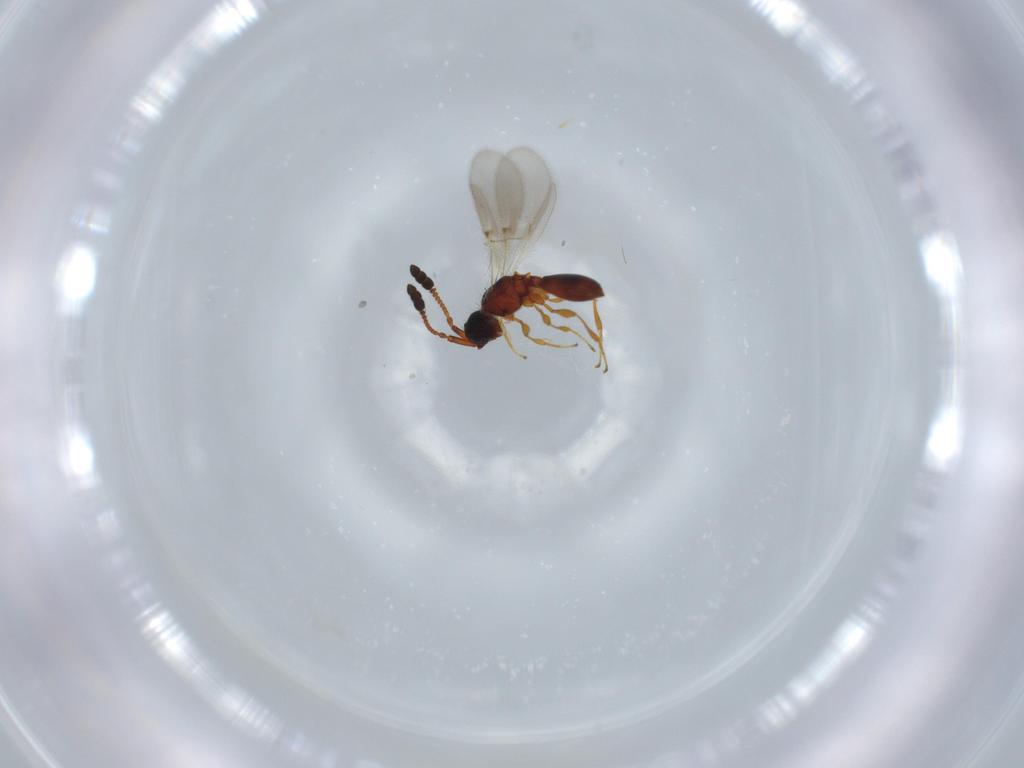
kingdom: Animalia
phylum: Arthropoda
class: Insecta
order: Hymenoptera
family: Diapriidae
